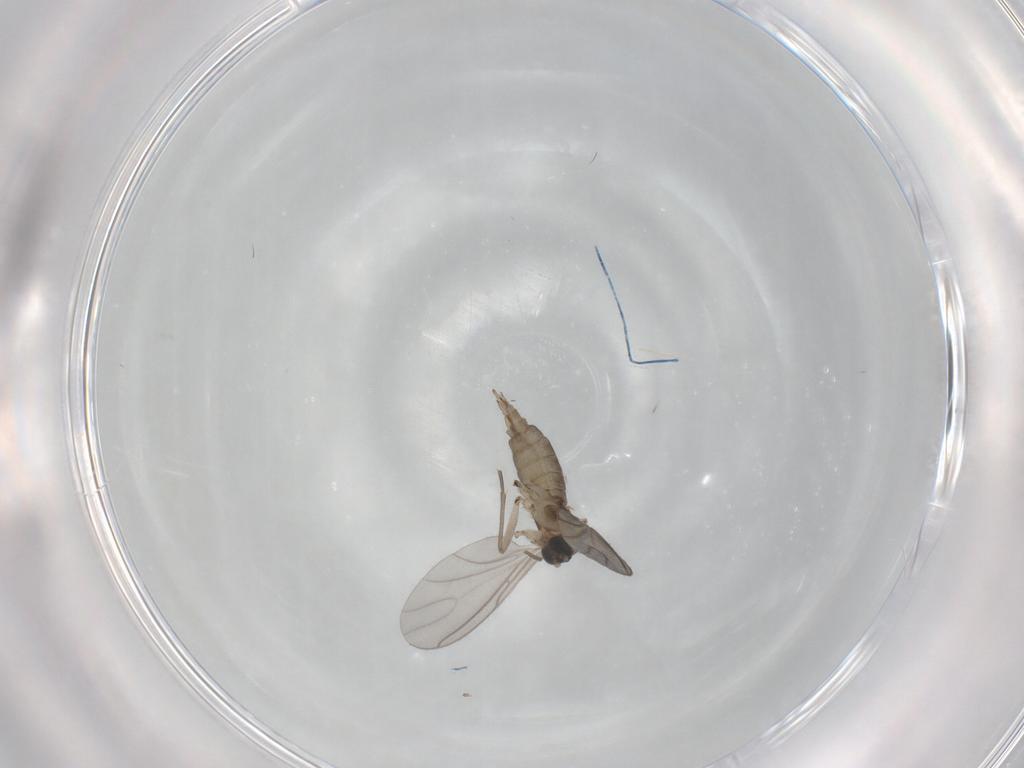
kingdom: Animalia
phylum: Arthropoda
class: Insecta
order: Diptera
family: Sciaridae
